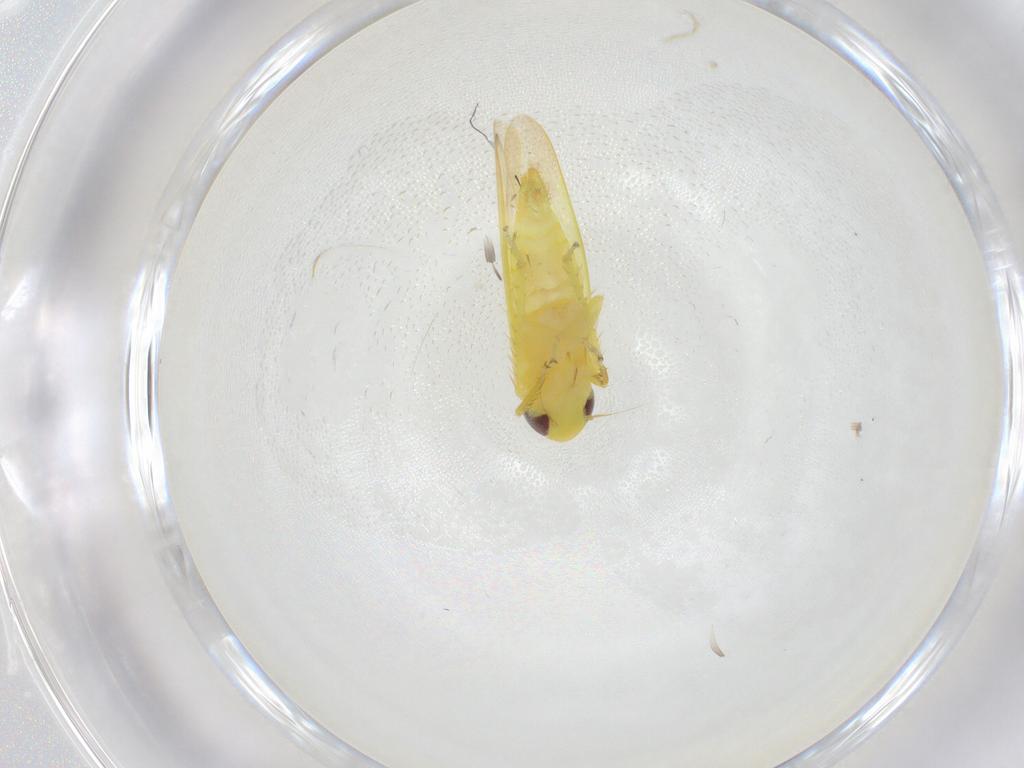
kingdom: Animalia
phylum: Arthropoda
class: Insecta
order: Hemiptera
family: Cicadellidae
